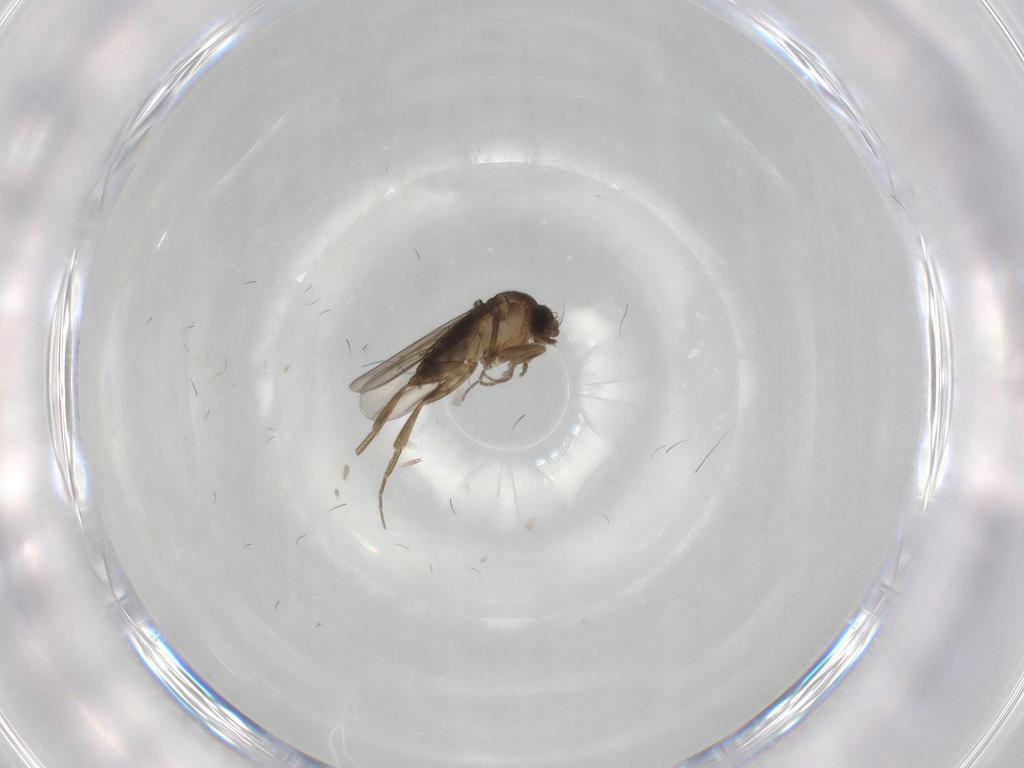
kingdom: Animalia
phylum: Arthropoda
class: Insecta
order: Diptera
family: Phoridae
